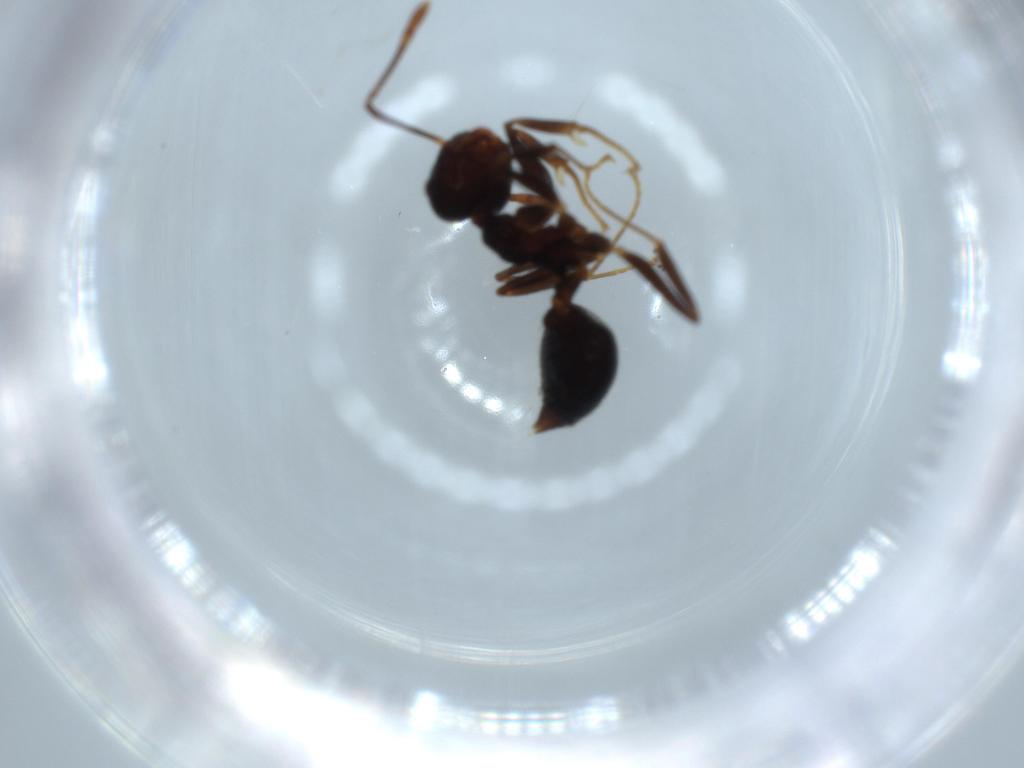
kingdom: Animalia
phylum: Arthropoda
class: Insecta
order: Hymenoptera
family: Formicidae
